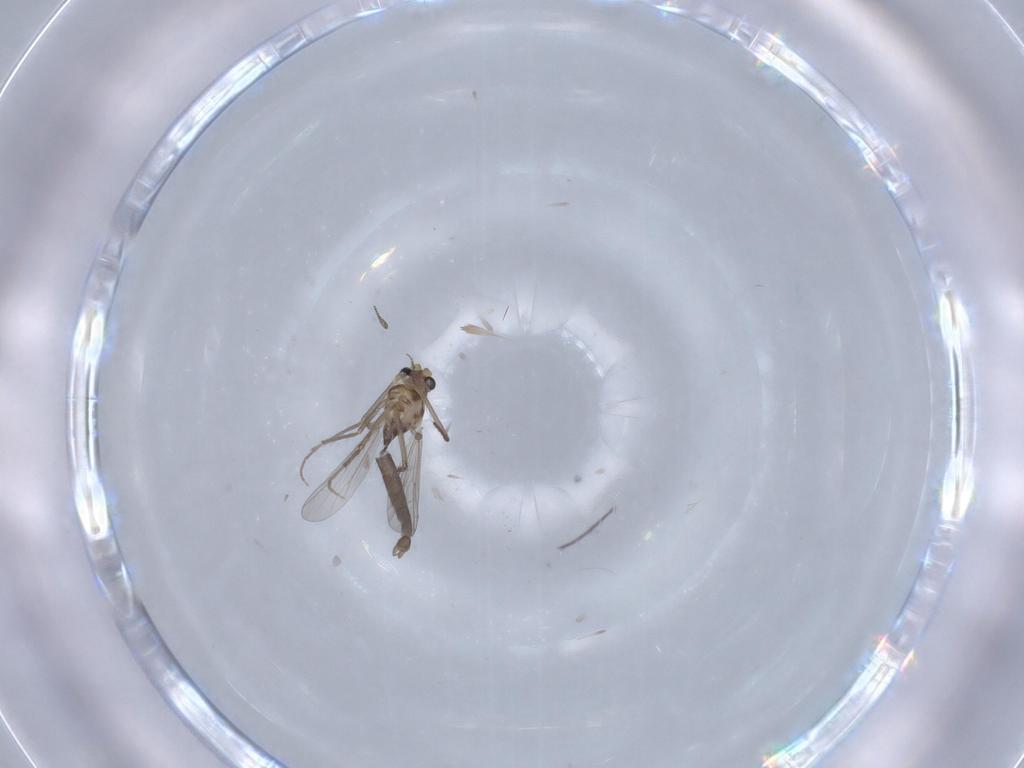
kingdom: Animalia
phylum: Arthropoda
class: Insecta
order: Diptera
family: Chironomidae
